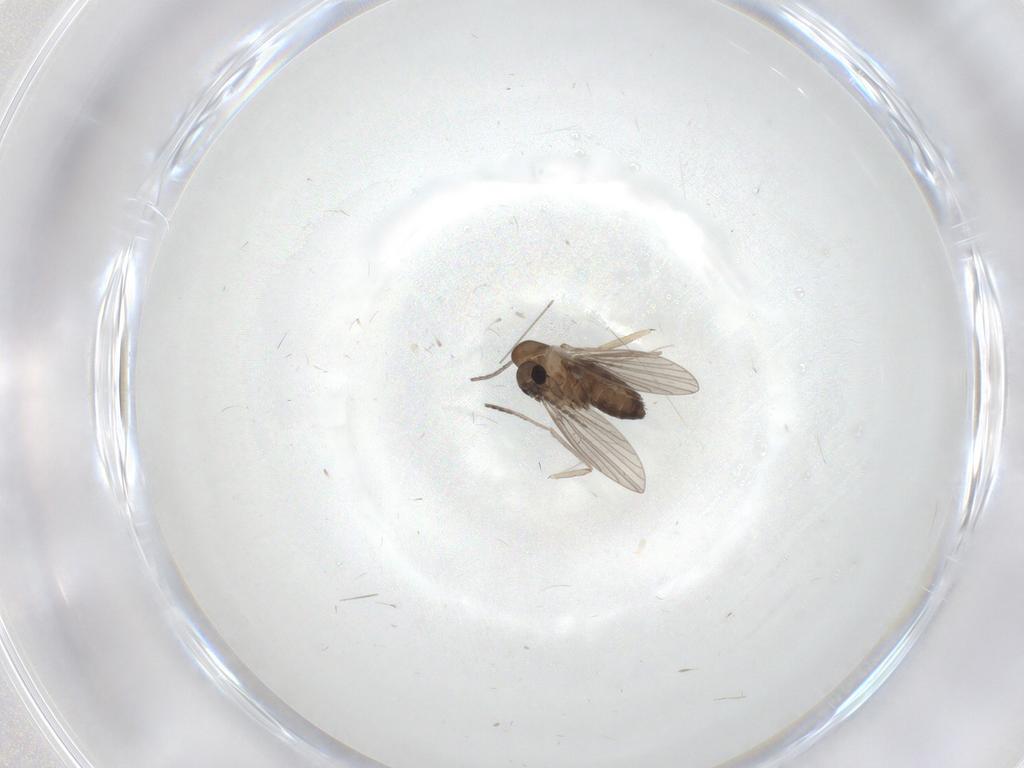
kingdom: Animalia
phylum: Arthropoda
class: Insecta
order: Diptera
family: Sciaridae
